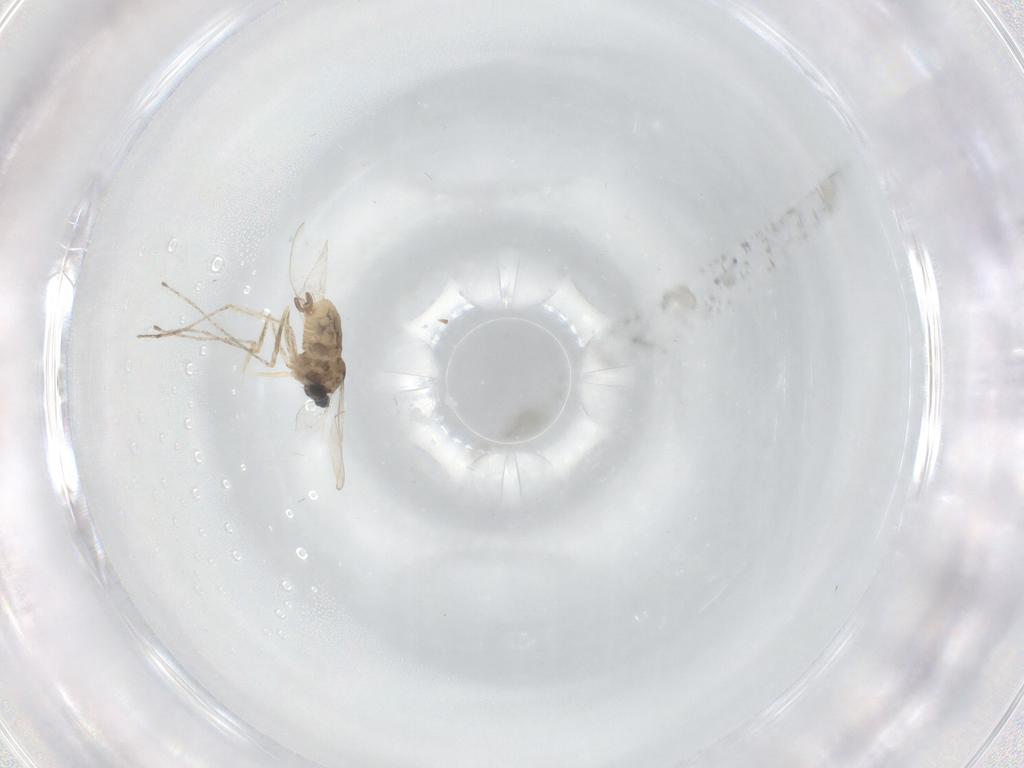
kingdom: Animalia
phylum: Arthropoda
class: Insecta
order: Diptera
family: Cecidomyiidae
